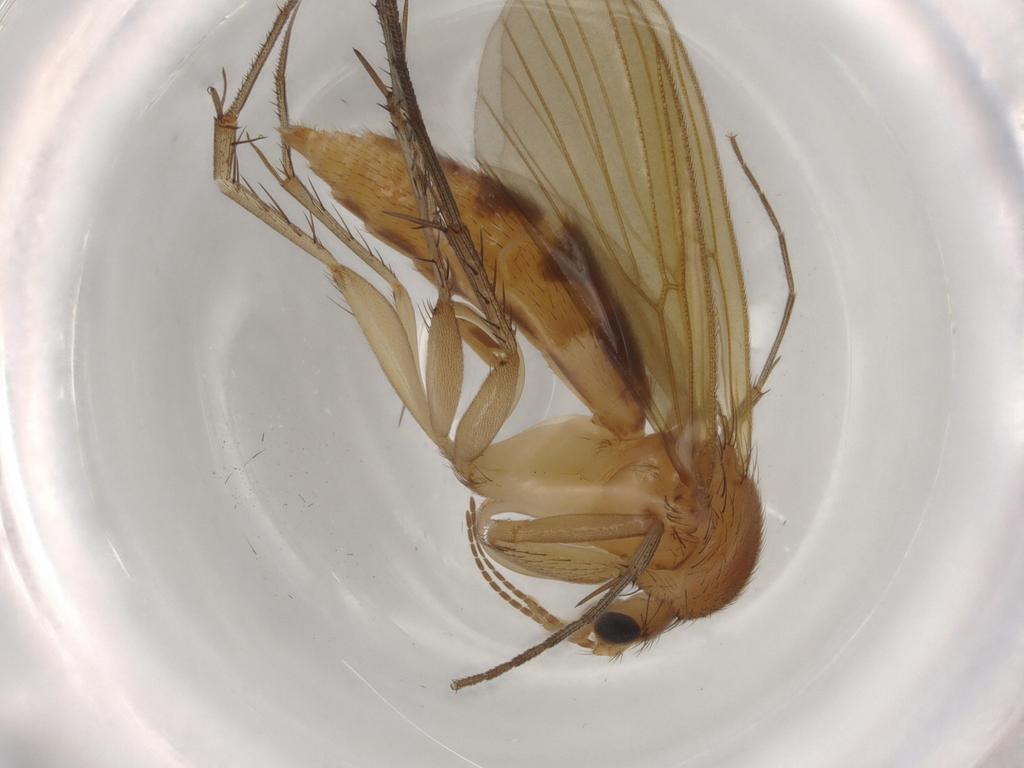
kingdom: Animalia
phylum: Arthropoda
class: Insecta
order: Diptera
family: Mycetophilidae
